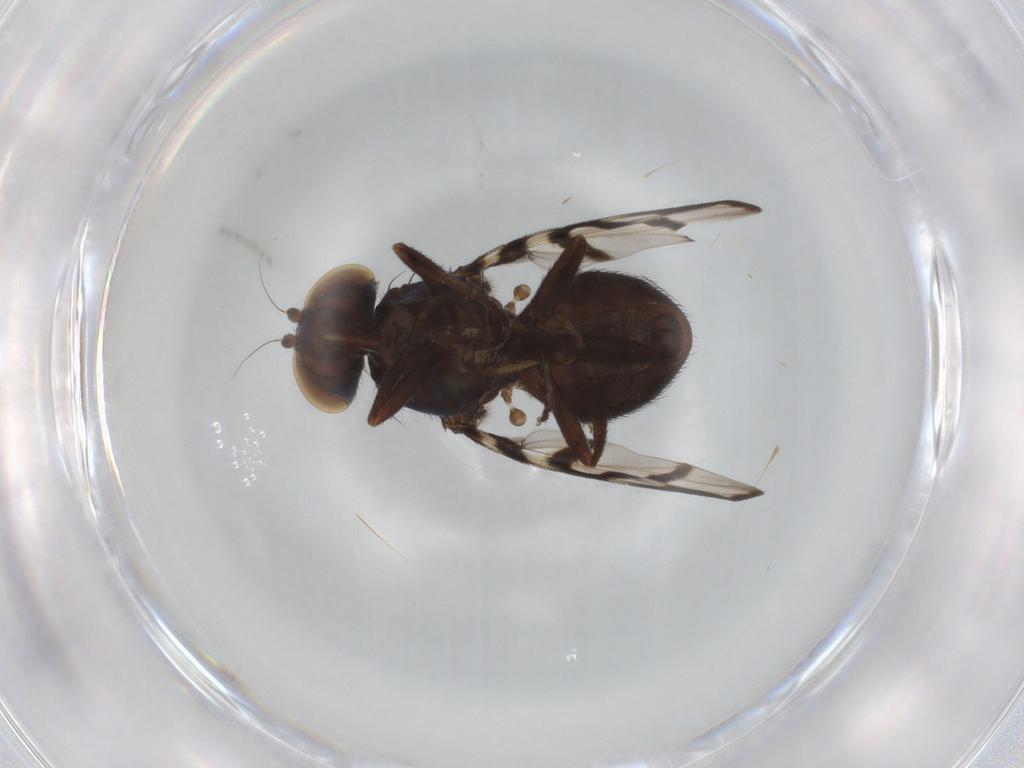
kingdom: Animalia
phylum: Arthropoda
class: Insecta
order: Diptera
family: Ulidiidae
